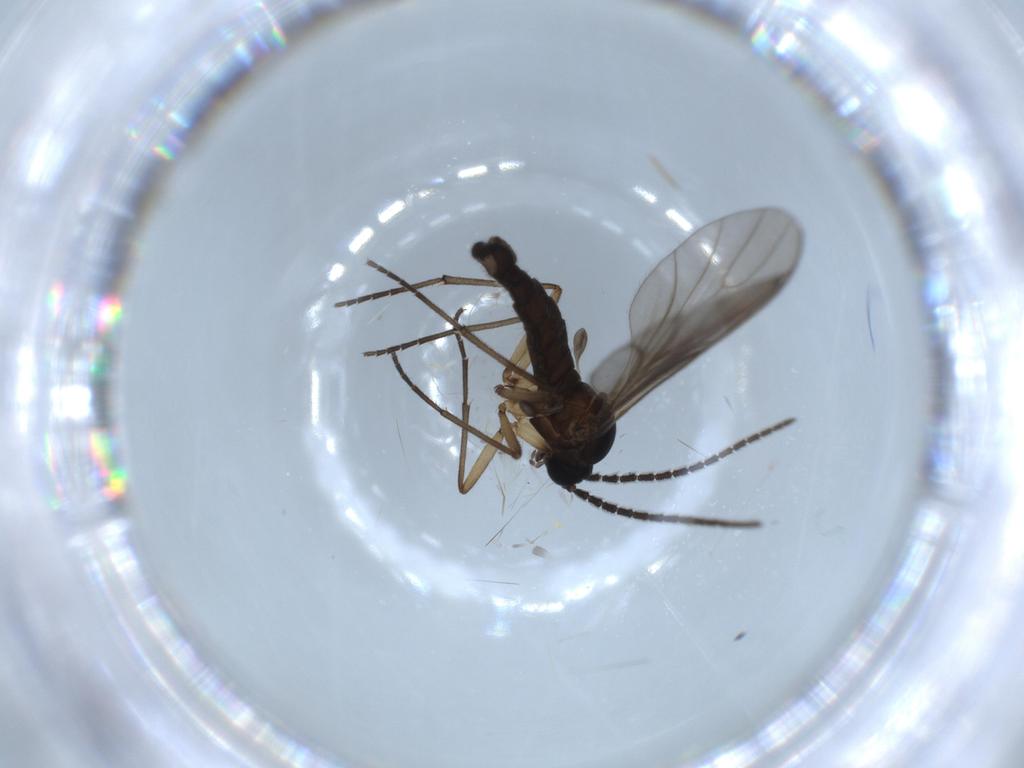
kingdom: Animalia
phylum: Arthropoda
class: Insecta
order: Diptera
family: Sciaridae
